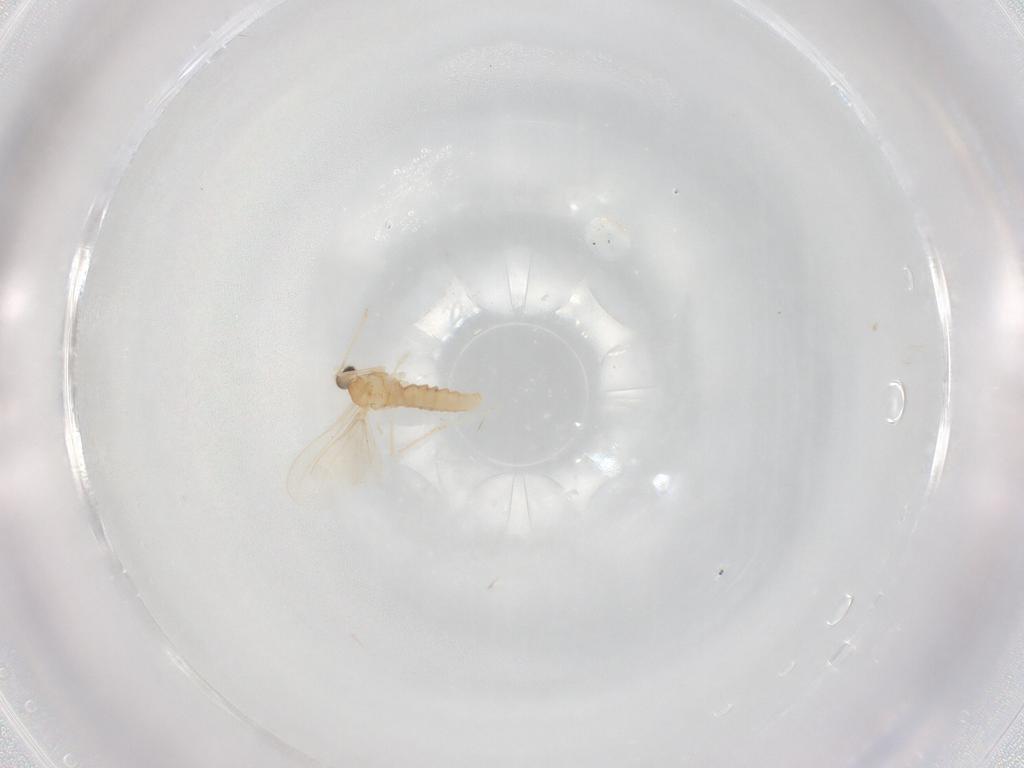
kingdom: Animalia
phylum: Arthropoda
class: Insecta
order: Diptera
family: Cecidomyiidae
